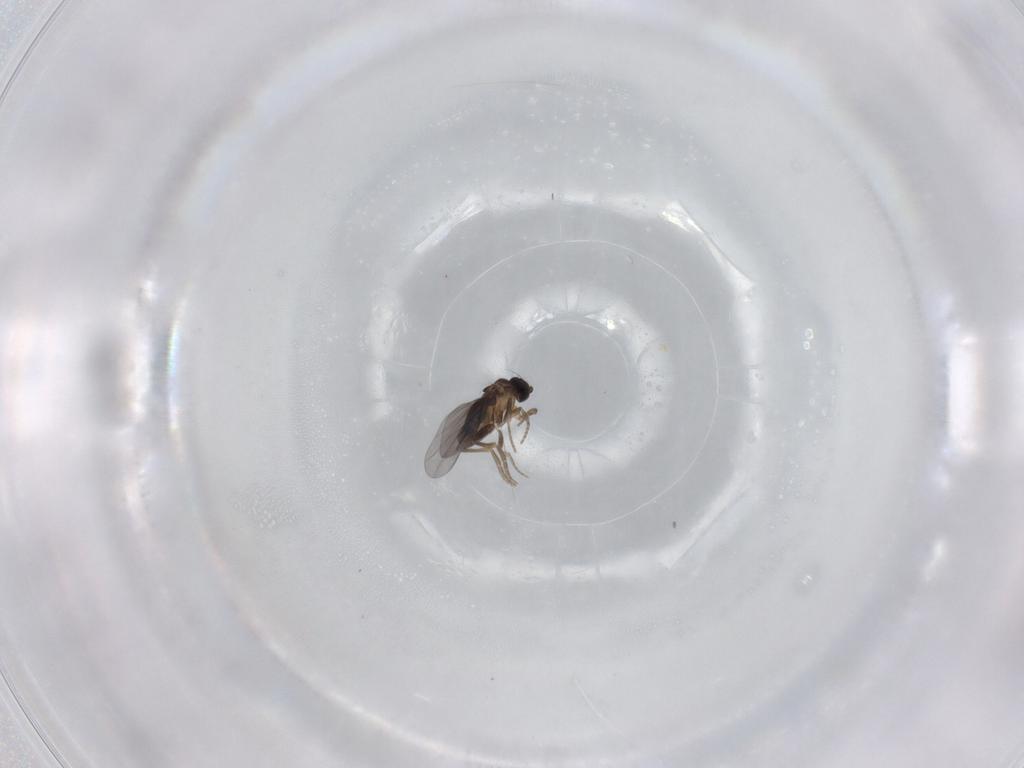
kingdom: Animalia
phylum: Arthropoda
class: Insecta
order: Diptera
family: Phoridae
